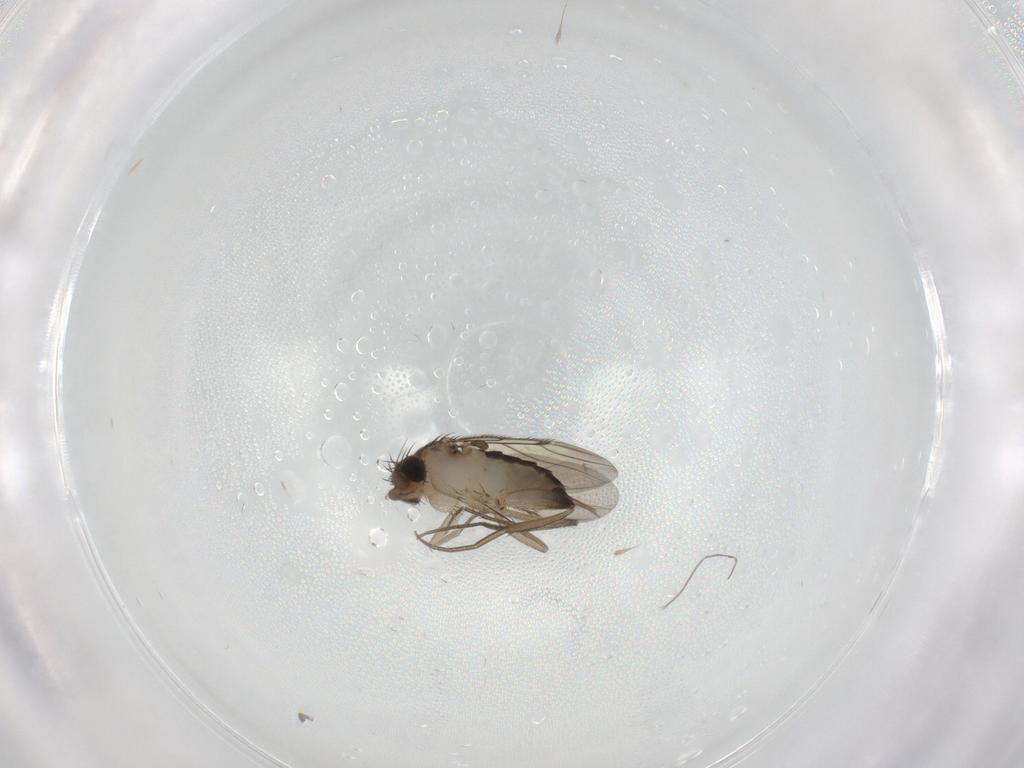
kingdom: Animalia
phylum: Arthropoda
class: Insecta
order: Diptera
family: Phoridae
